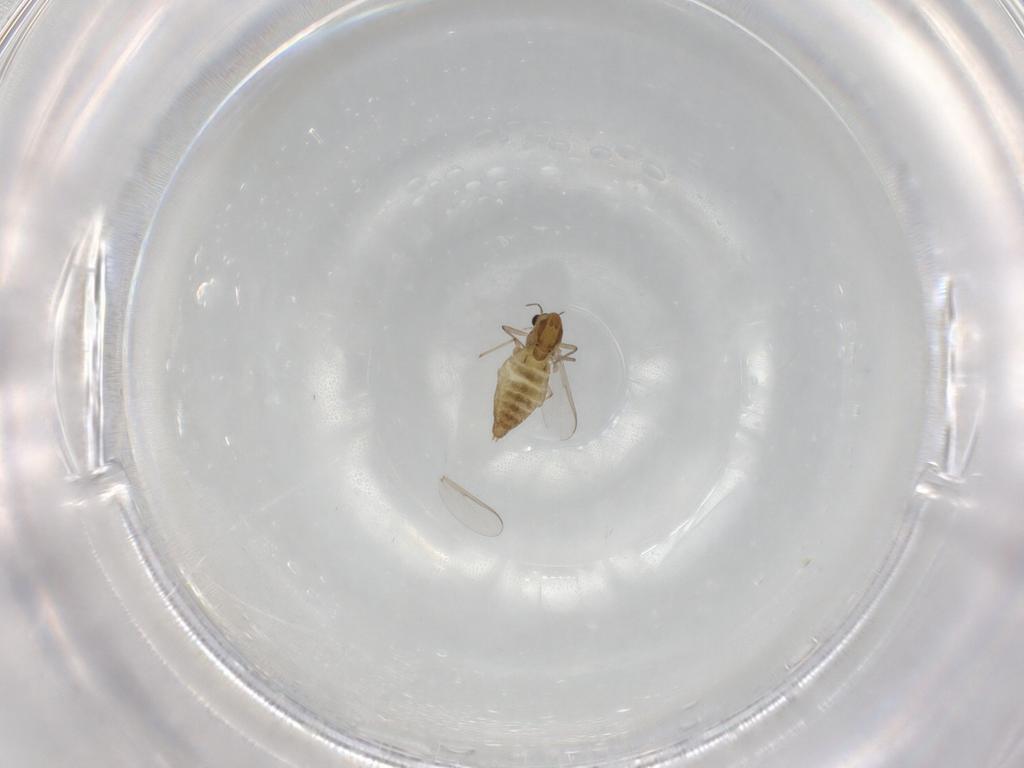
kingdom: Animalia
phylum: Arthropoda
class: Insecta
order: Diptera
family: Chironomidae
